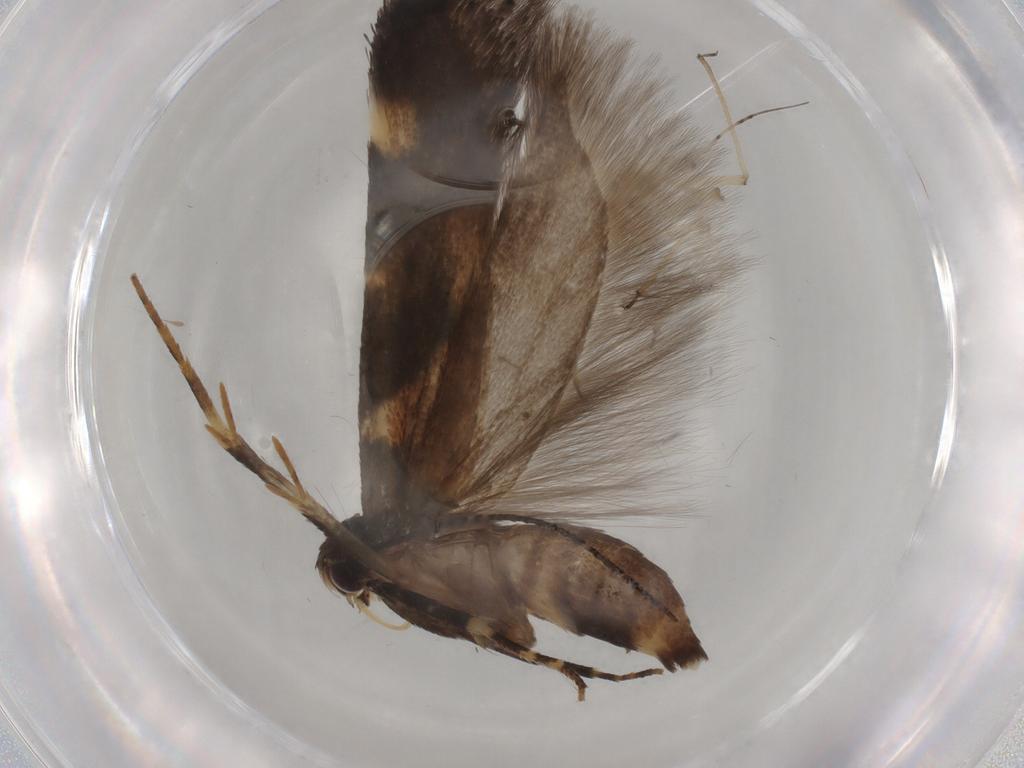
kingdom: Animalia
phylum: Arthropoda
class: Insecta
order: Lepidoptera
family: Gelechiidae
